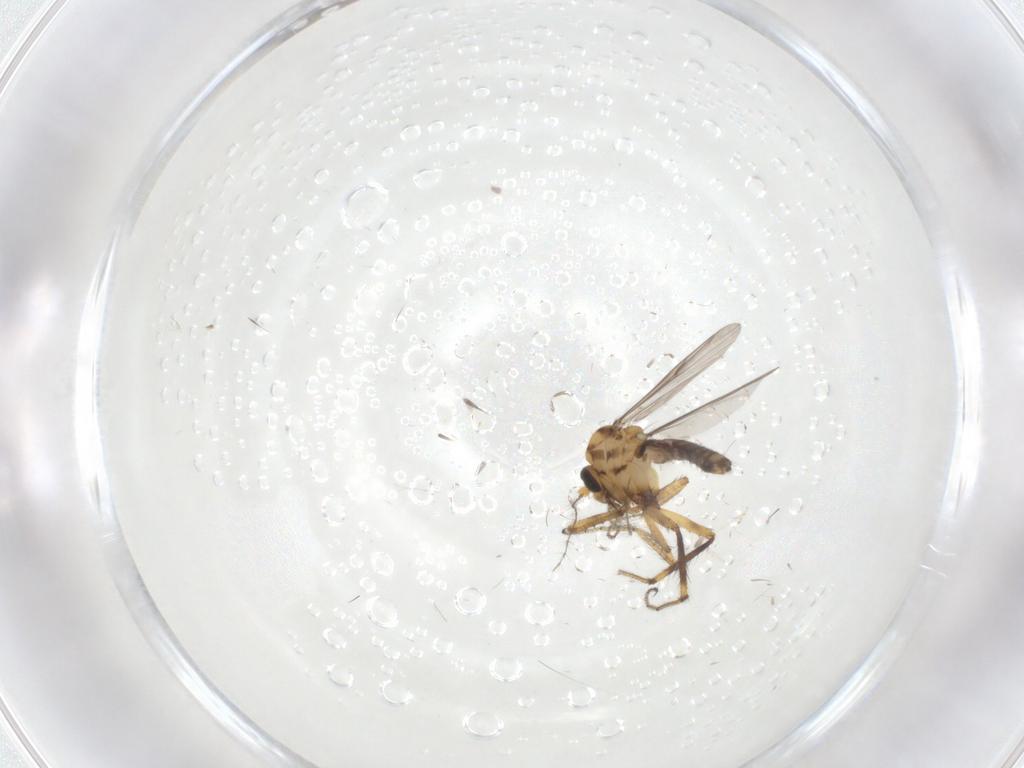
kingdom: Animalia
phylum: Arthropoda
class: Insecta
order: Diptera
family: Ceratopogonidae
